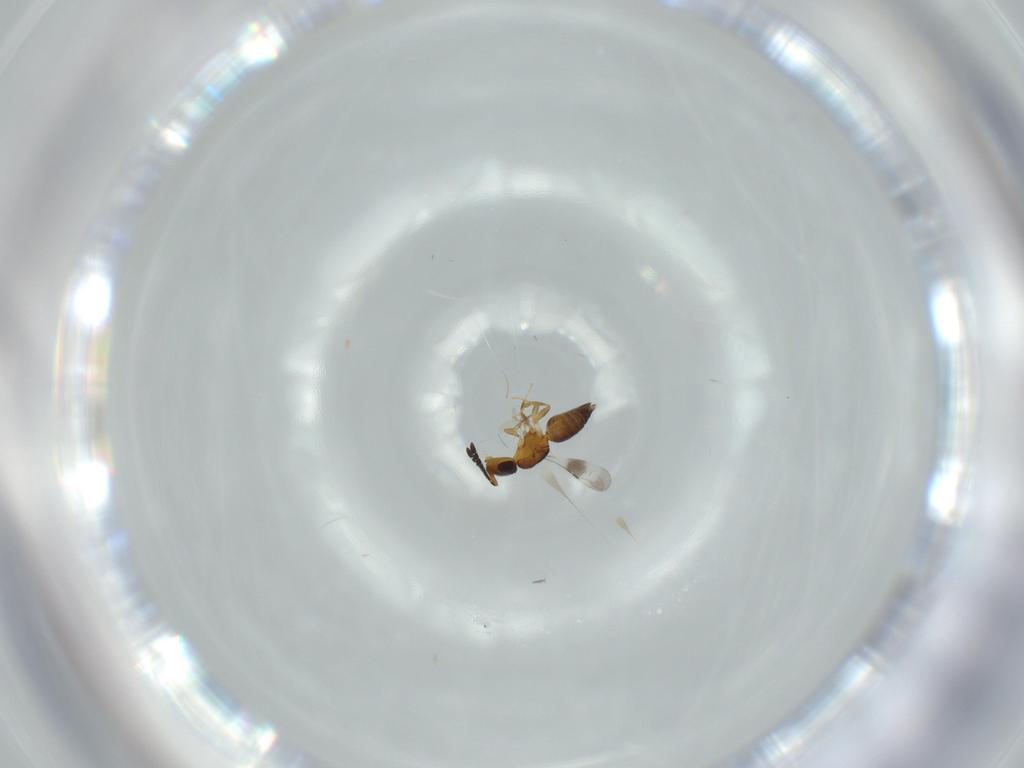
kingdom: Animalia
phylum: Arthropoda
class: Insecta
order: Hymenoptera
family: Ceraphronidae
